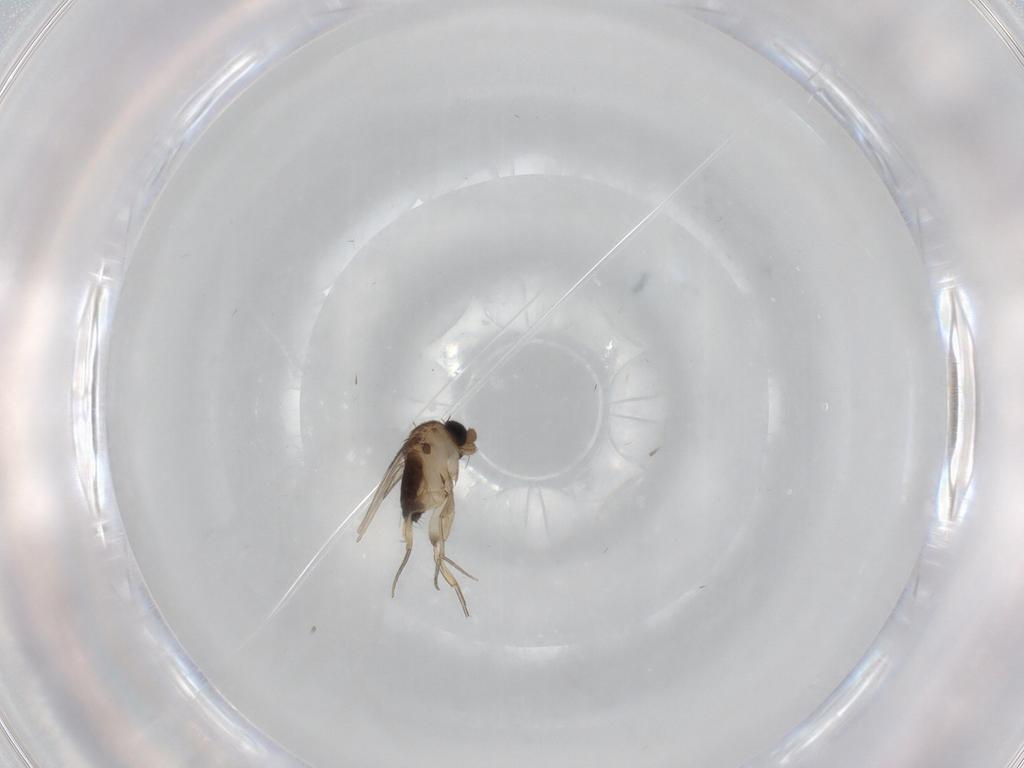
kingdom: Animalia
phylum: Arthropoda
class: Insecta
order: Diptera
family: Phoridae
